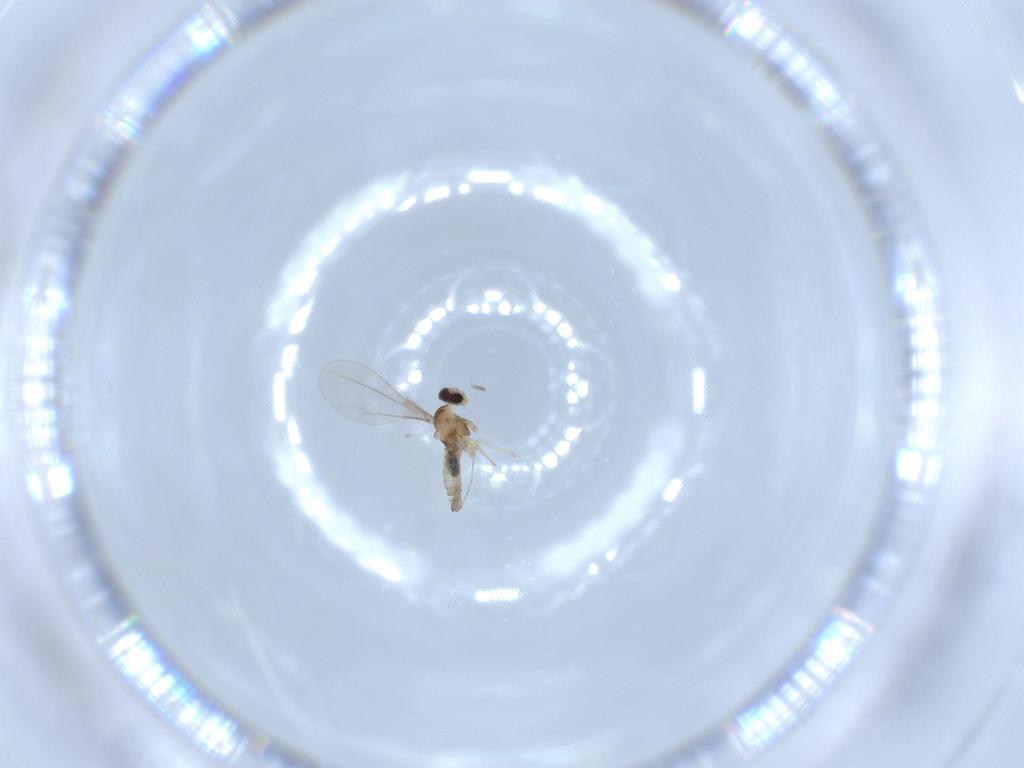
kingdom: Animalia
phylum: Arthropoda
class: Insecta
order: Diptera
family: Cecidomyiidae
